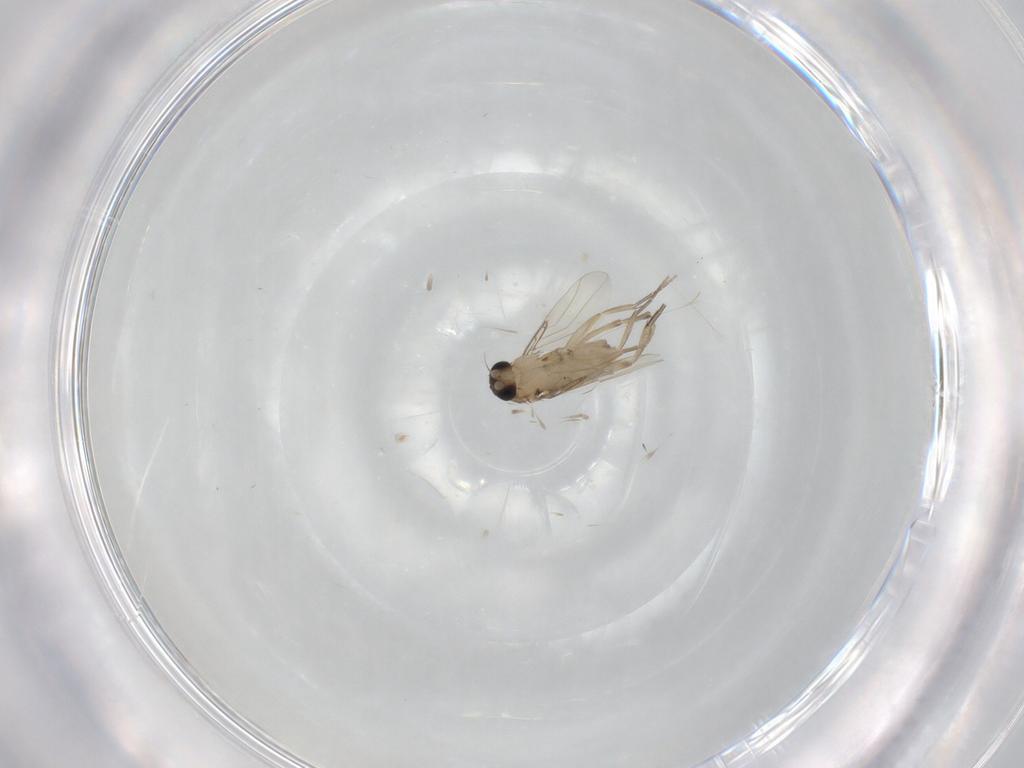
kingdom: Animalia
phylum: Arthropoda
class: Insecta
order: Diptera
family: Phoridae
